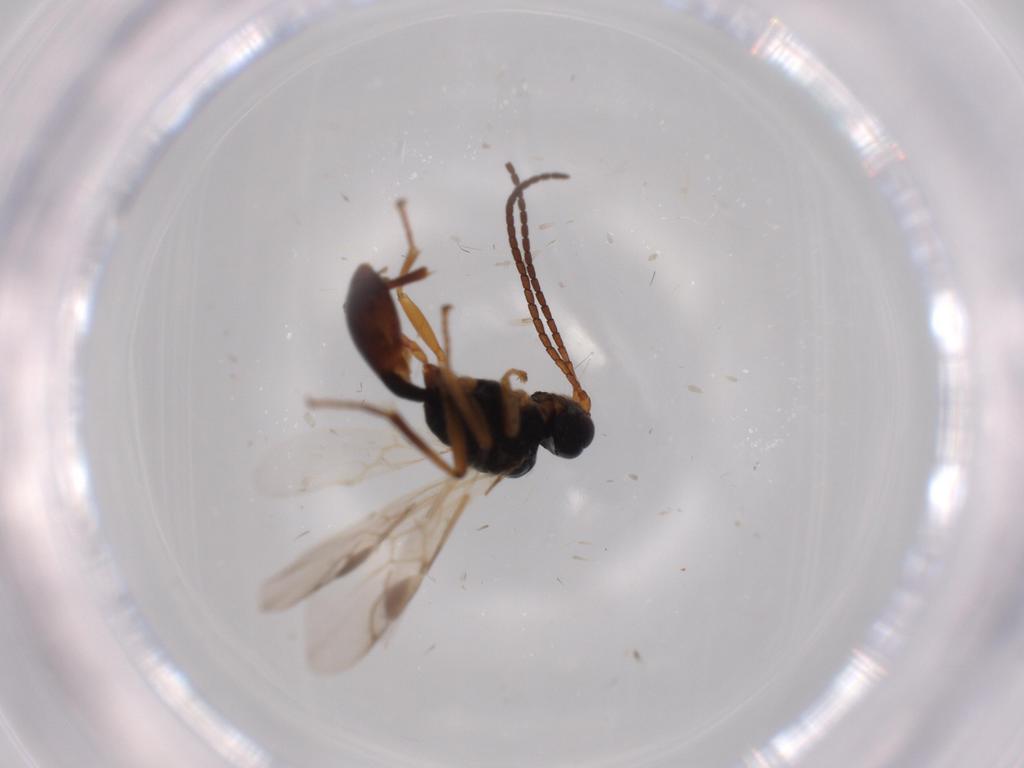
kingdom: Animalia
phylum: Arthropoda
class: Insecta
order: Hymenoptera
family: Braconidae
